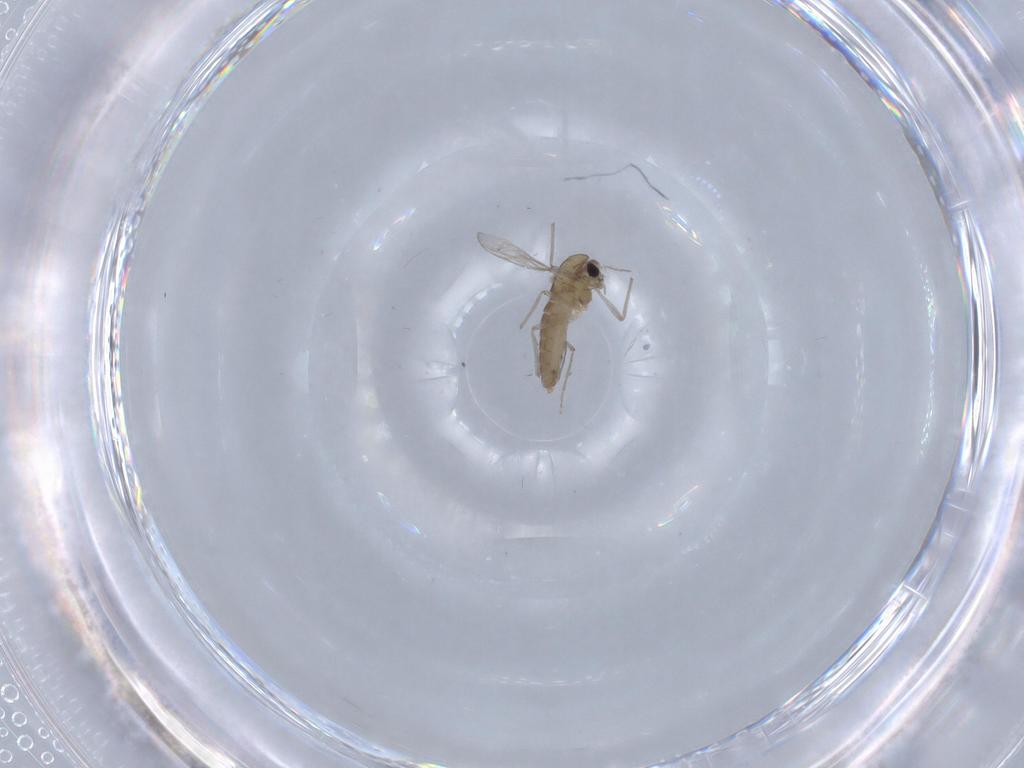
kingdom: Animalia
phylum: Arthropoda
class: Insecta
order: Diptera
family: Chironomidae
